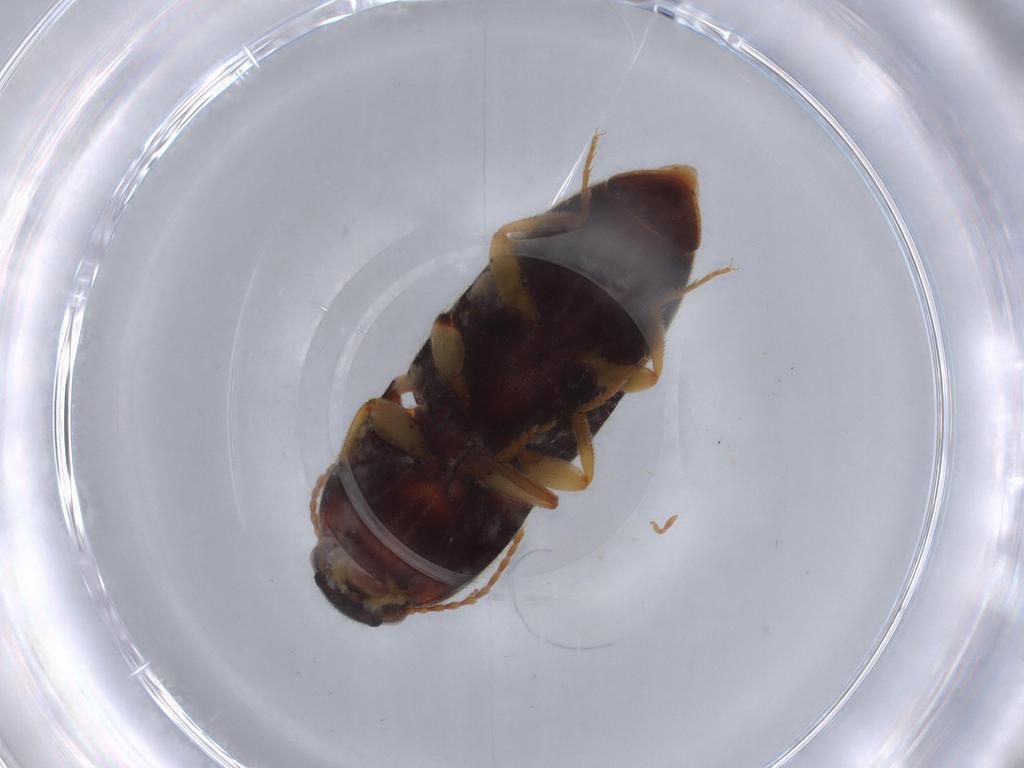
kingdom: Animalia
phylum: Arthropoda
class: Insecta
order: Coleoptera
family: Elateridae
